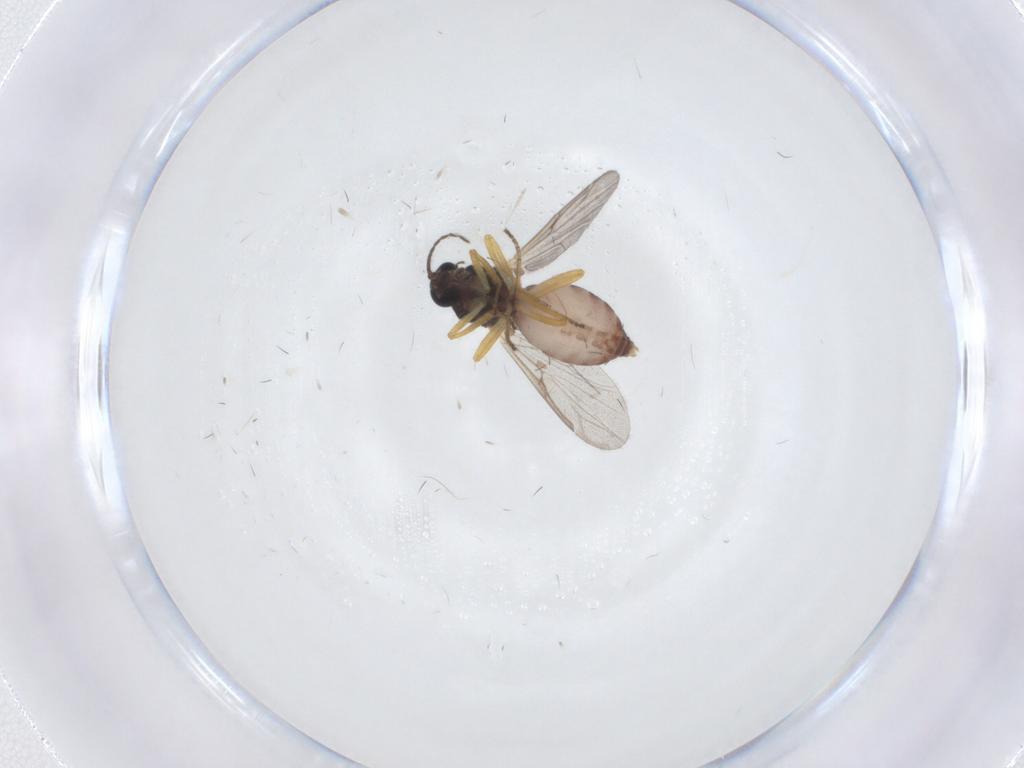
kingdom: Animalia
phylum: Arthropoda
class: Insecta
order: Diptera
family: Ceratopogonidae
